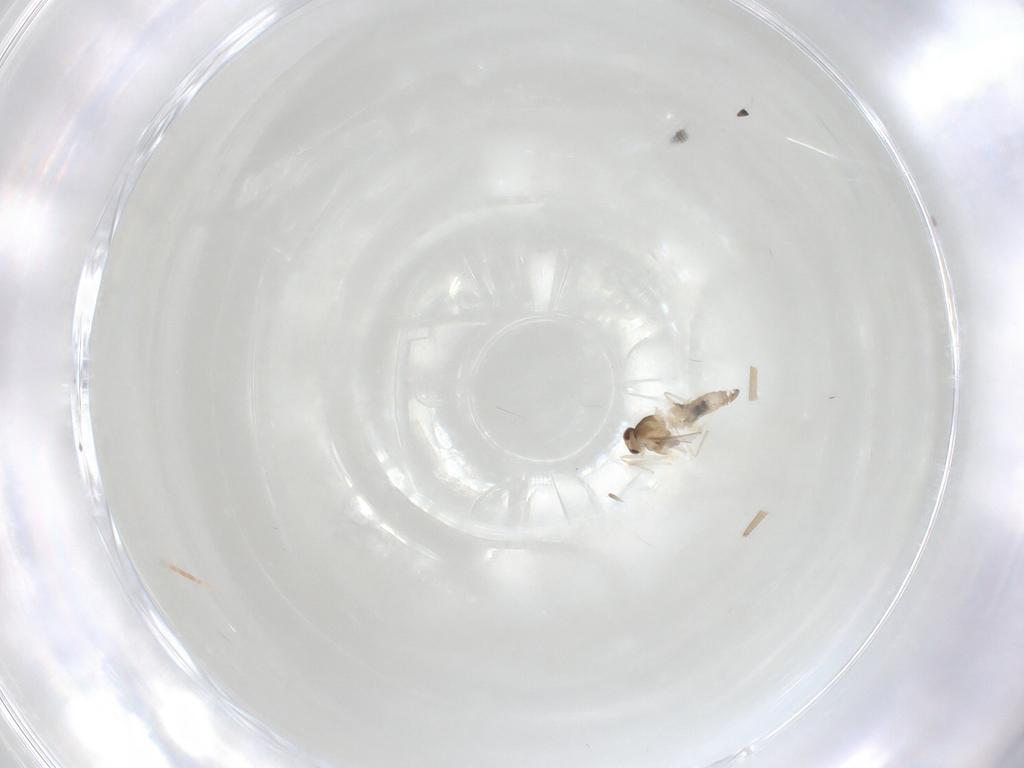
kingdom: Animalia
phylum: Arthropoda
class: Insecta
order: Diptera
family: Cecidomyiidae
